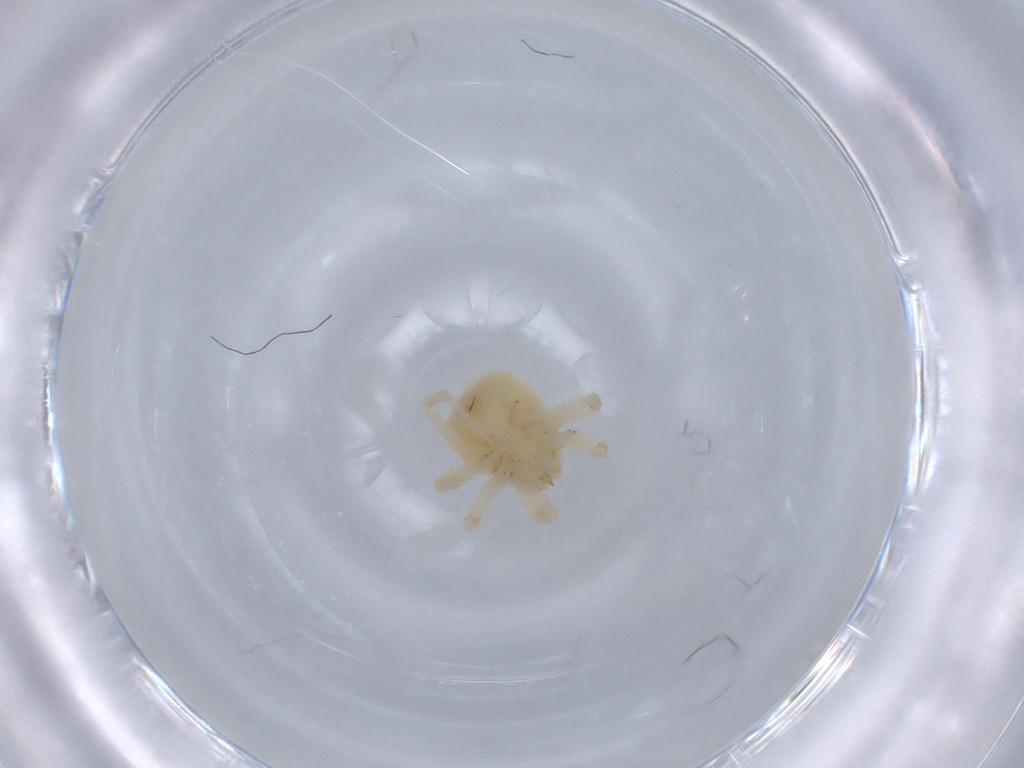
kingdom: Animalia
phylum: Arthropoda
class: Arachnida
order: Trombidiformes
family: Anystidae
